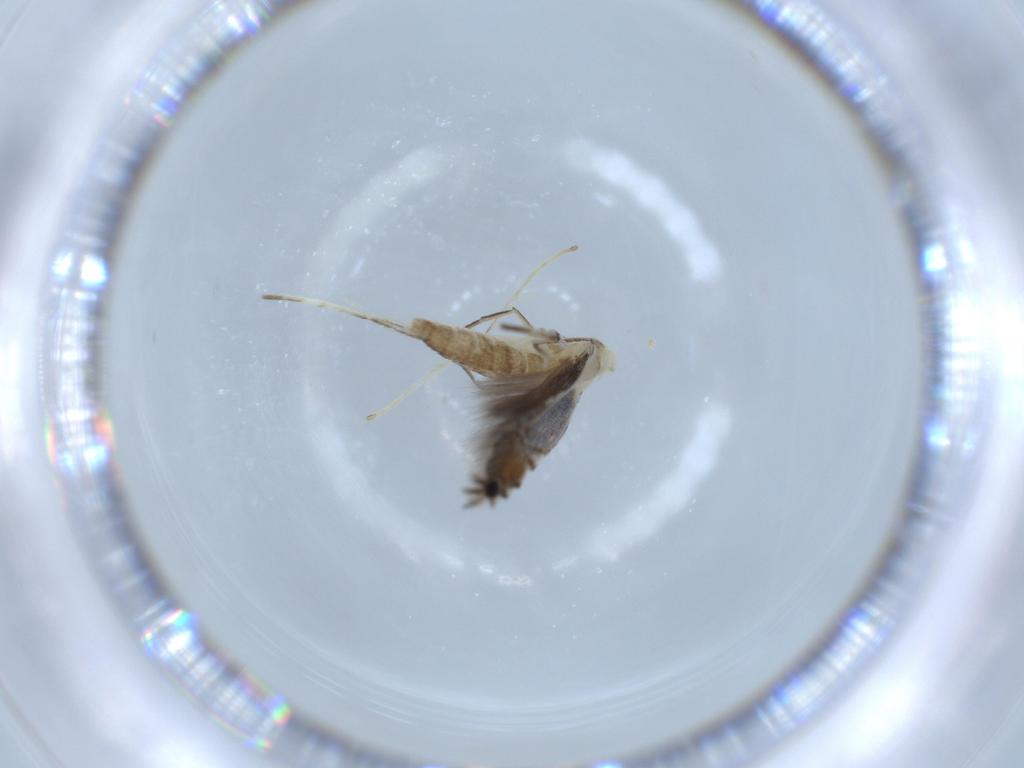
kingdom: Animalia
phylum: Arthropoda
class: Insecta
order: Lepidoptera
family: Gracillariidae
